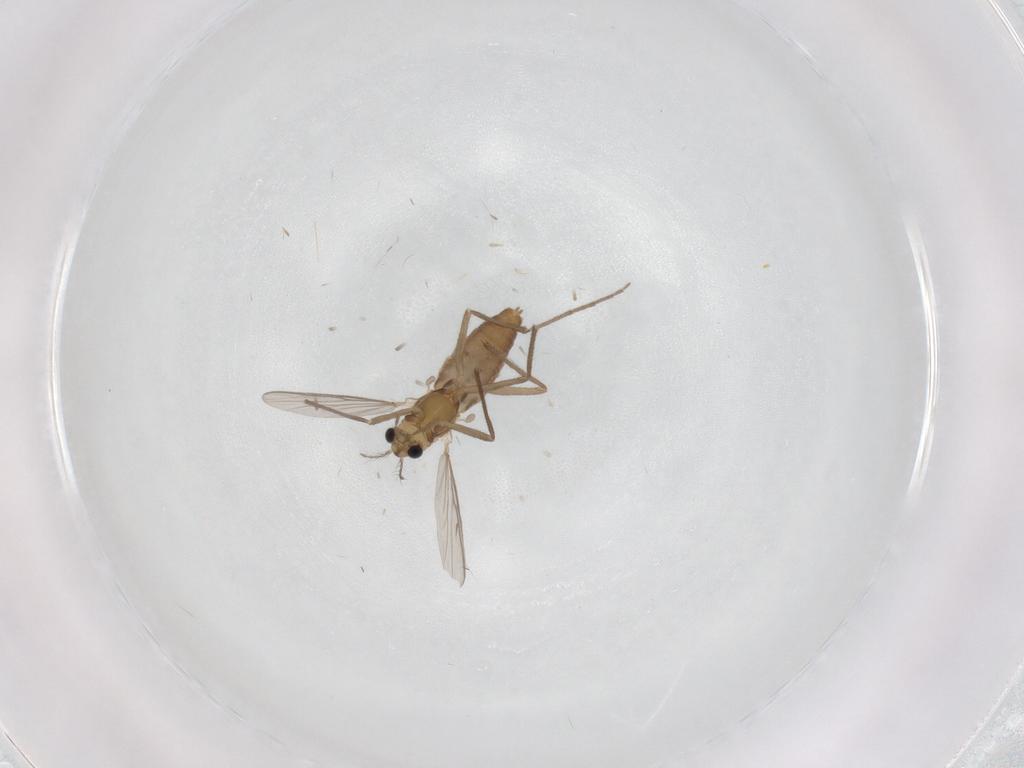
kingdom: Animalia
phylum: Arthropoda
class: Insecta
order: Diptera
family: Chironomidae
